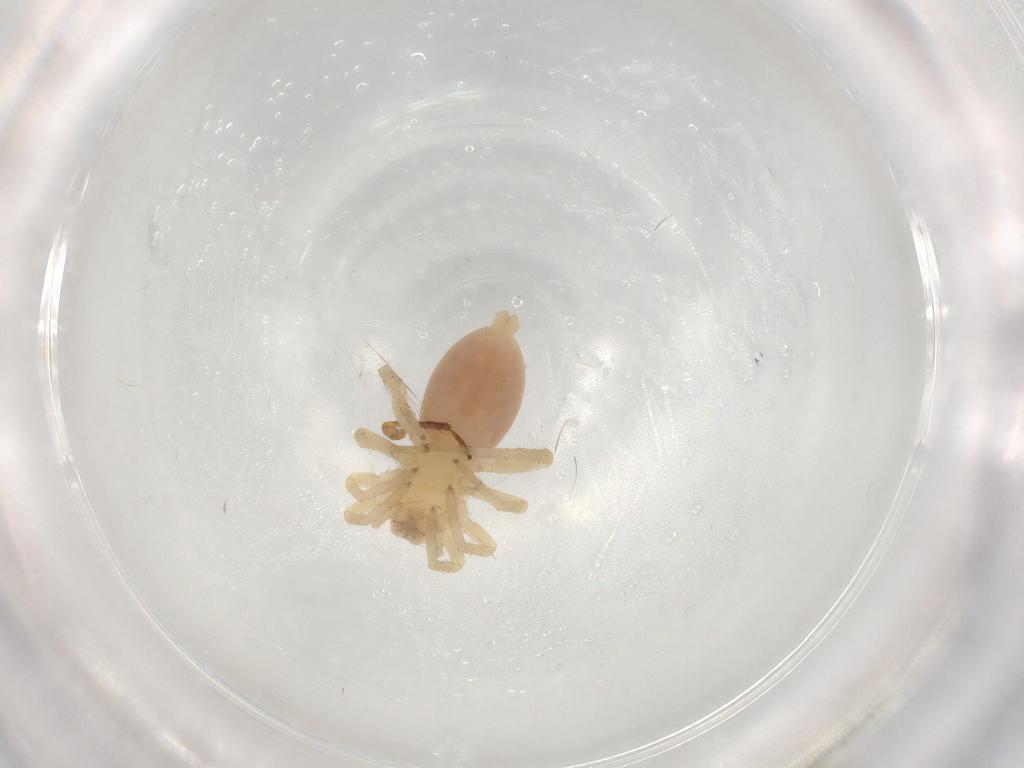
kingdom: Animalia
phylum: Arthropoda
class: Arachnida
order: Araneae
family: Clubionidae
